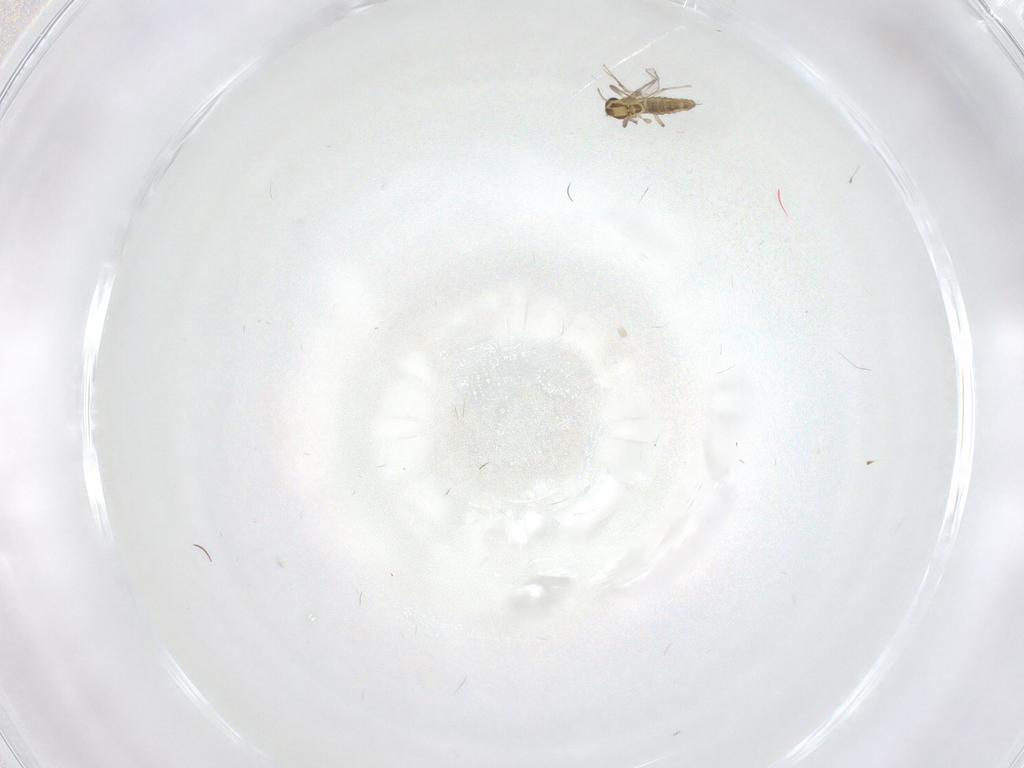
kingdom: Animalia
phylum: Arthropoda
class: Insecta
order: Diptera
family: Chironomidae
